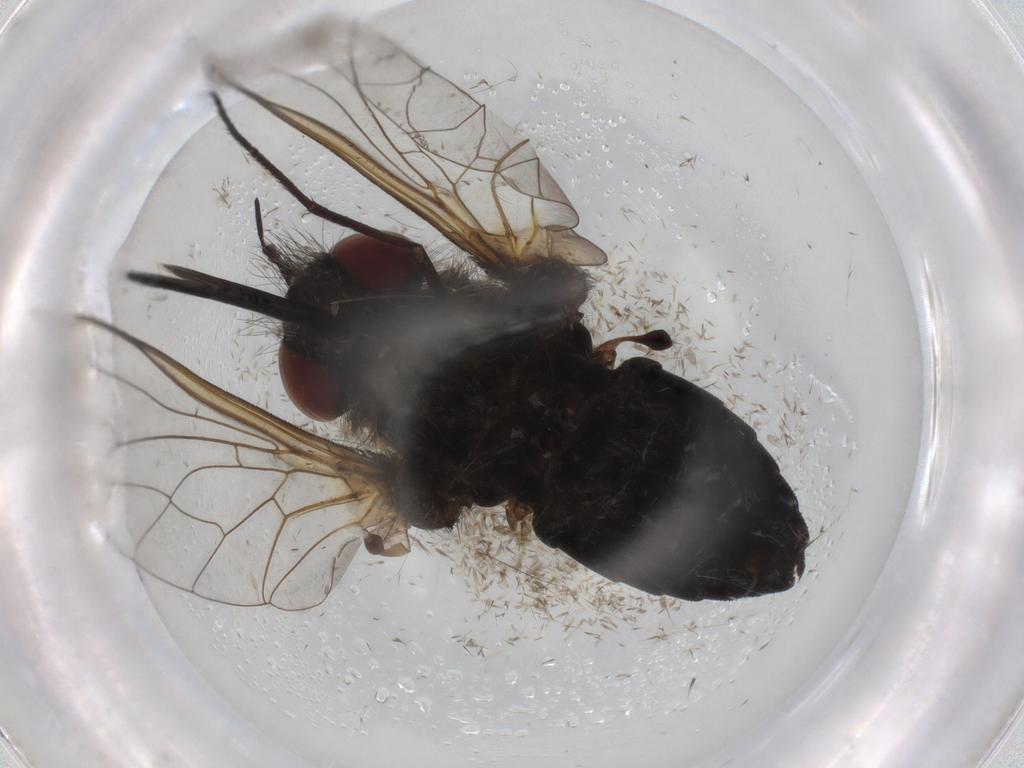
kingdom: Animalia
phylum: Arthropoda
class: Insecta
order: Diptera
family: Bombyliidae
